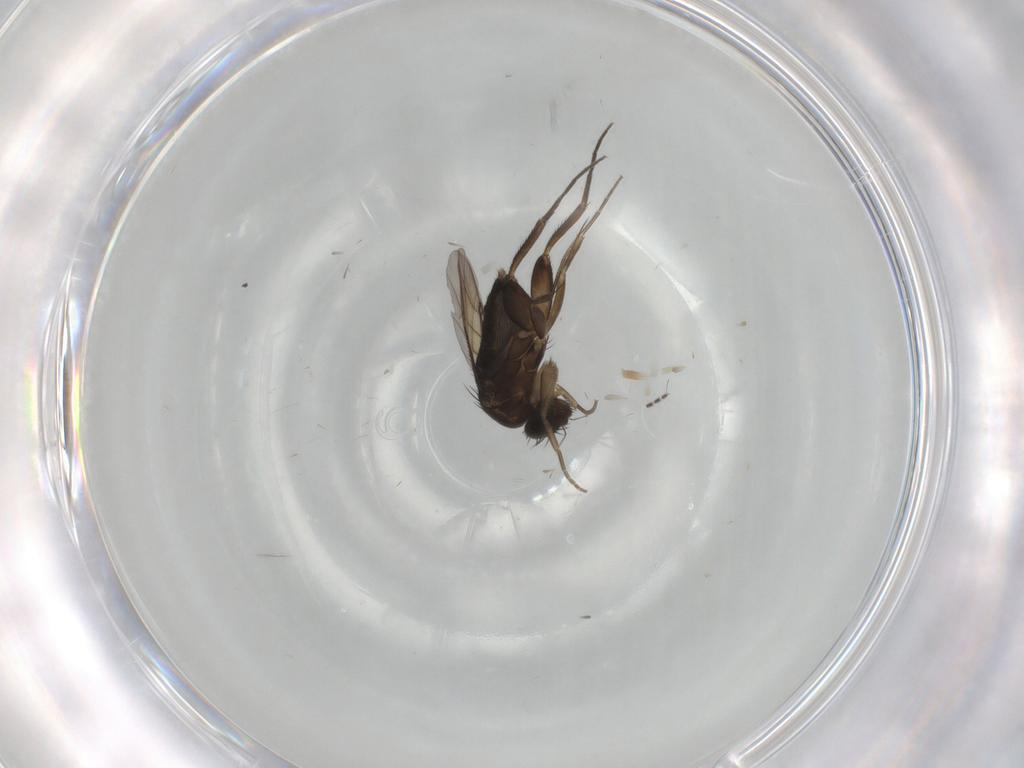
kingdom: Animalia
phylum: Arthropoda
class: Insecta
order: Diptera
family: Phoridae
